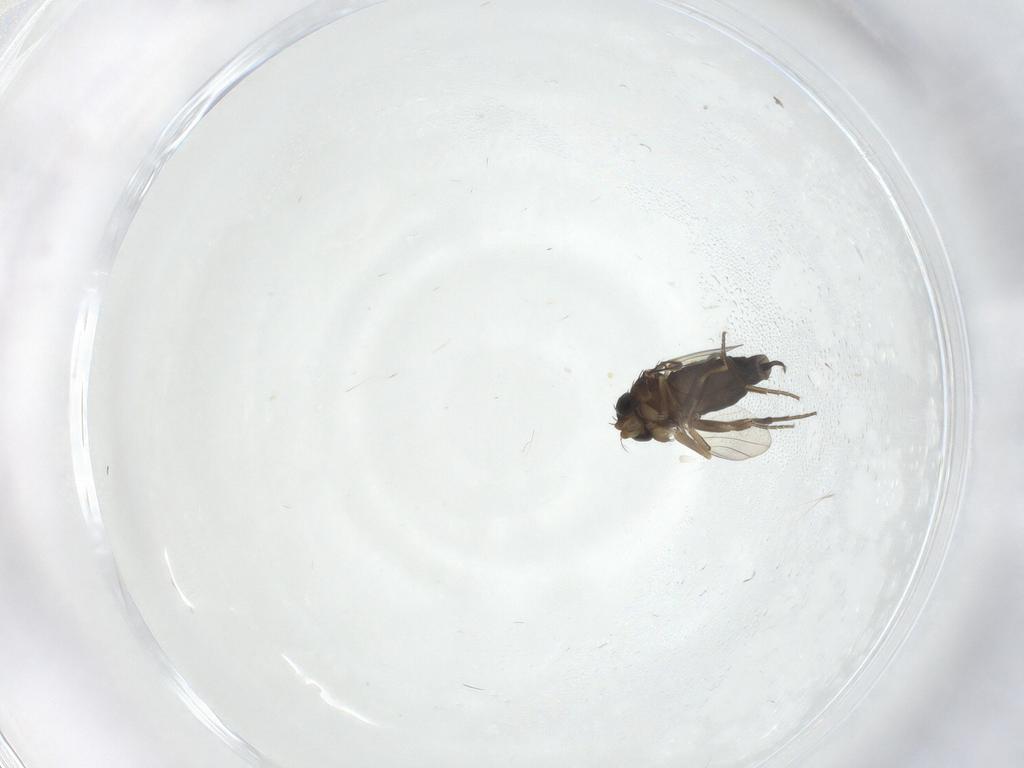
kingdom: Animalia
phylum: Arthropoda
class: Insecta
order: Diptera
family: Phoridae
